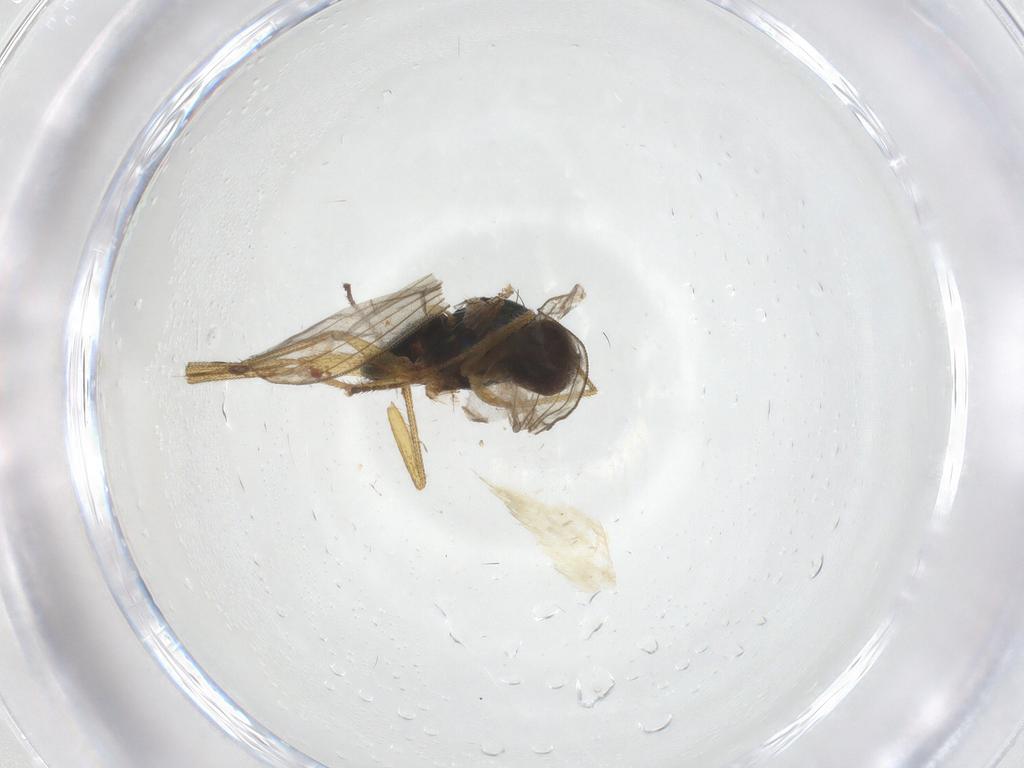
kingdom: Animalia
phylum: Arthropoda
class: Insecta
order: Diptera
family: Dolichopodidae
